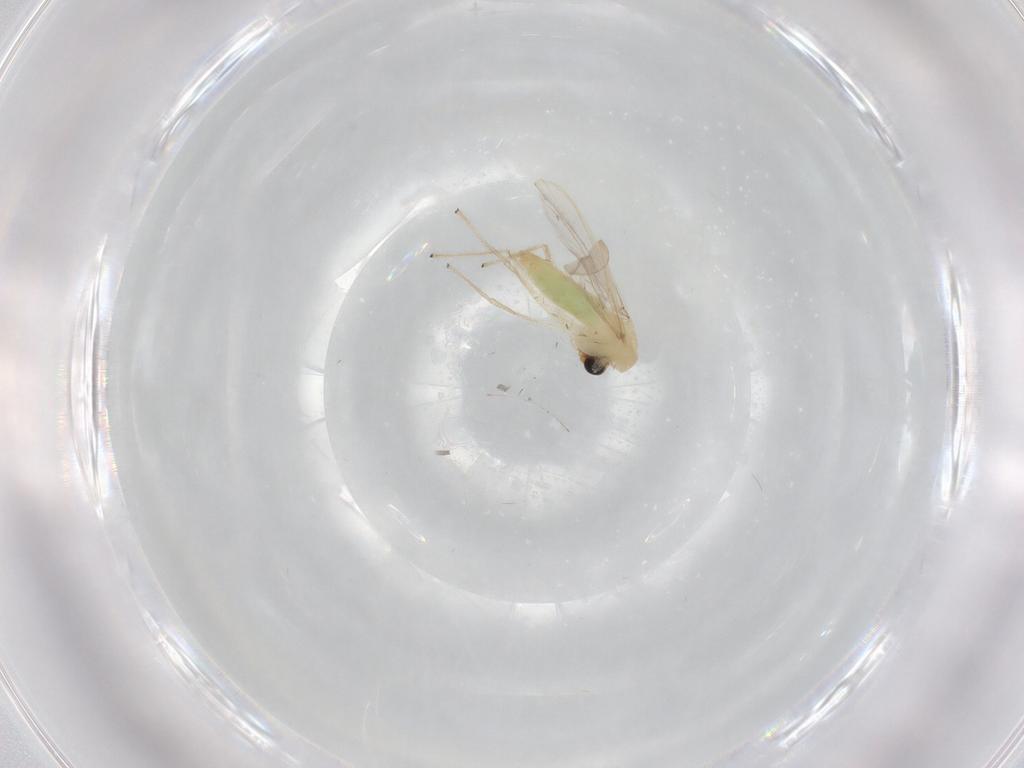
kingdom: Animalia
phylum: Arthropoda
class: Insecta
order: Diptera
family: Chironomidae
